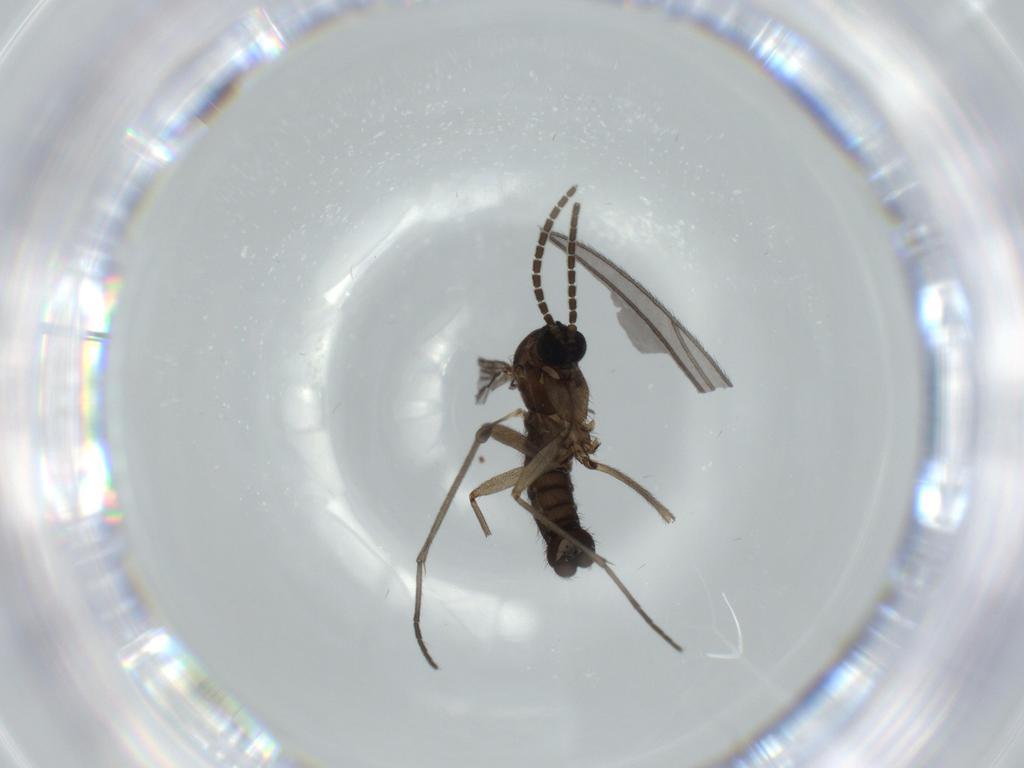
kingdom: Animalia
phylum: Arthropoda
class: Insecta
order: Diptera
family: Sciaridae
